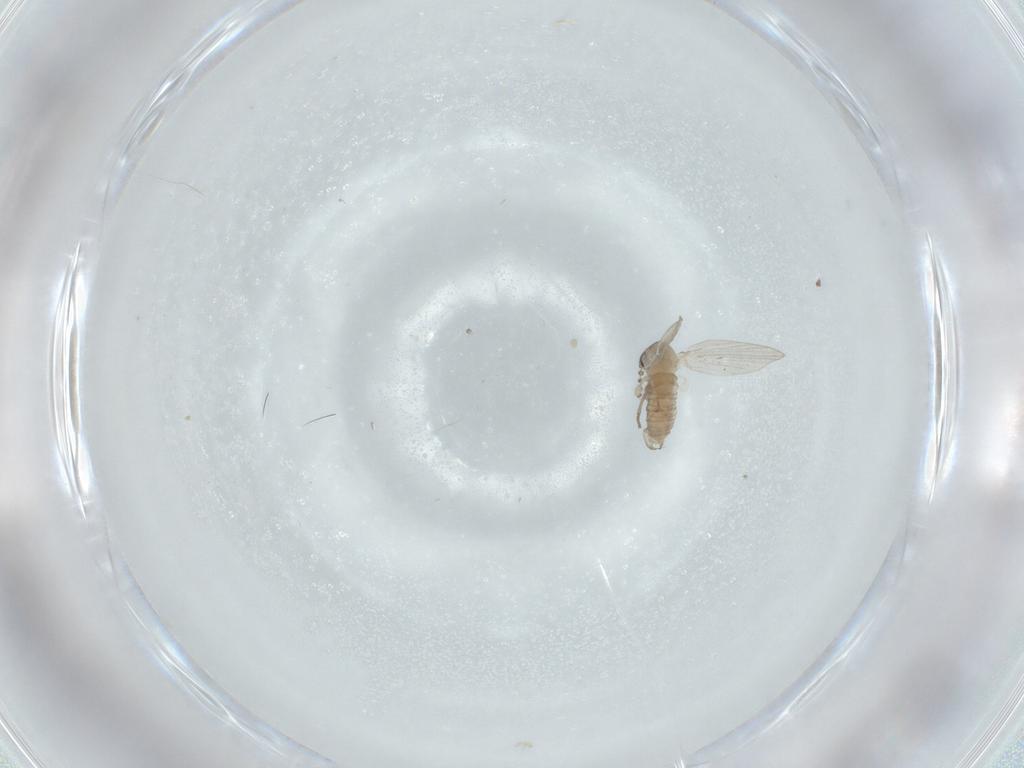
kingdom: Animalia
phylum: Arthropoda
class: Insecta
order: Diptera
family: Psychodidae
